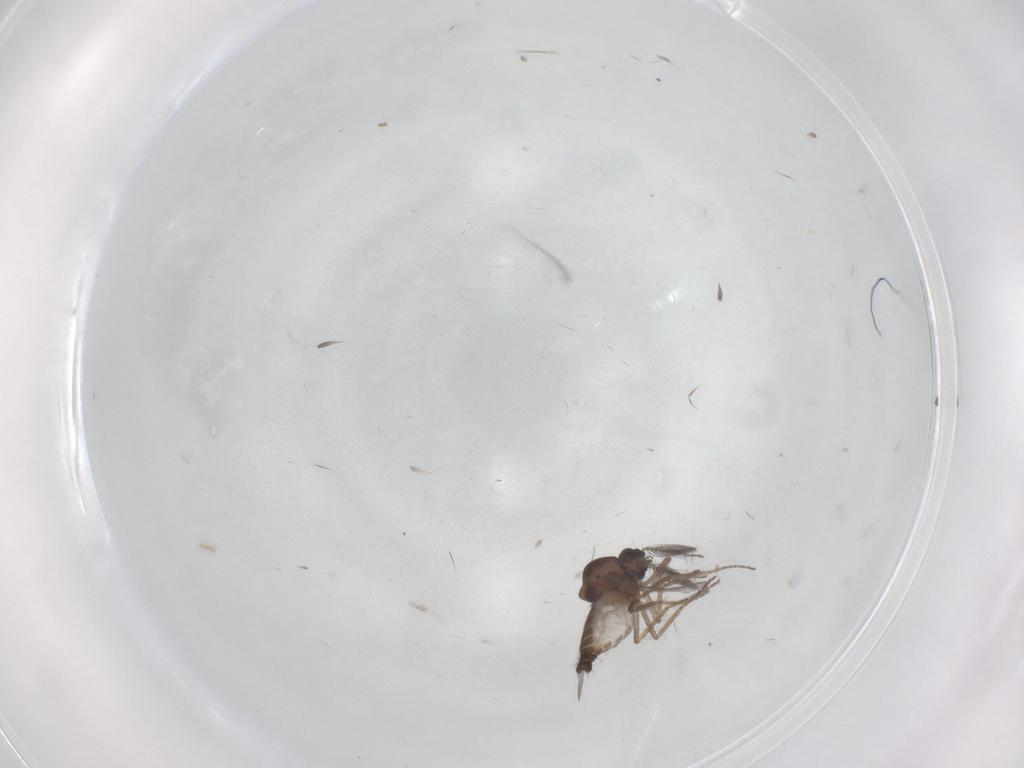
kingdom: Animalia
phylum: Arthropoda
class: Insecta
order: Diptera
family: Ceratopogonidae
